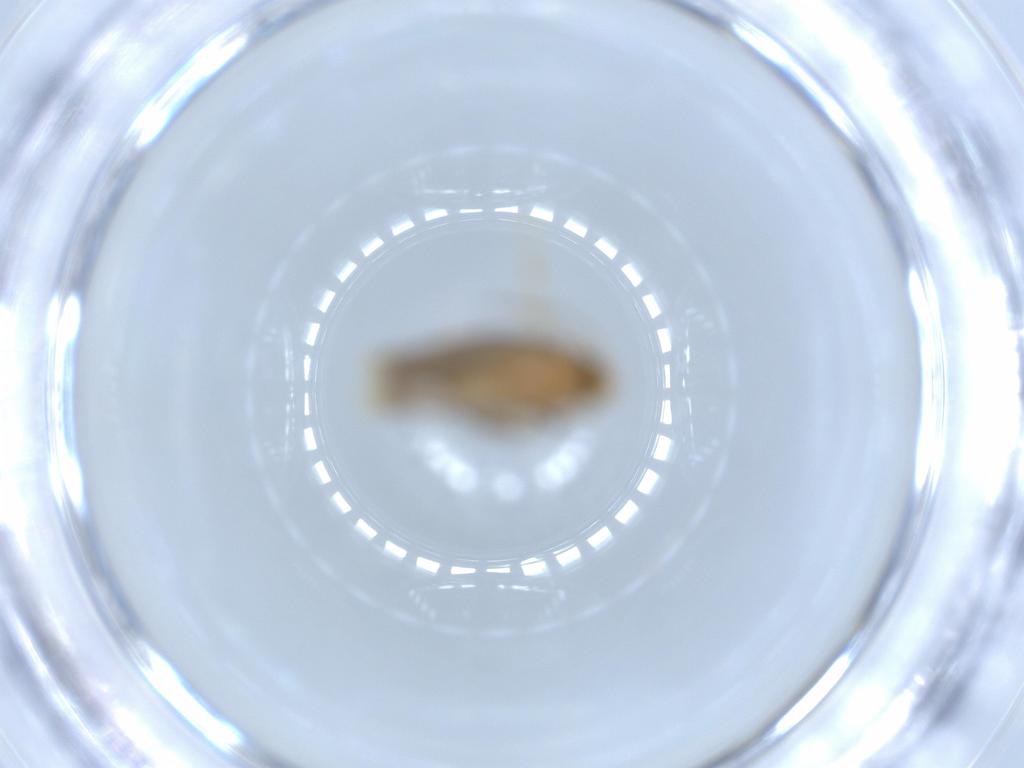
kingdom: Animalia
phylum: Arthropoda
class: Insecta
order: Lepidoptera
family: Nepticulidae
